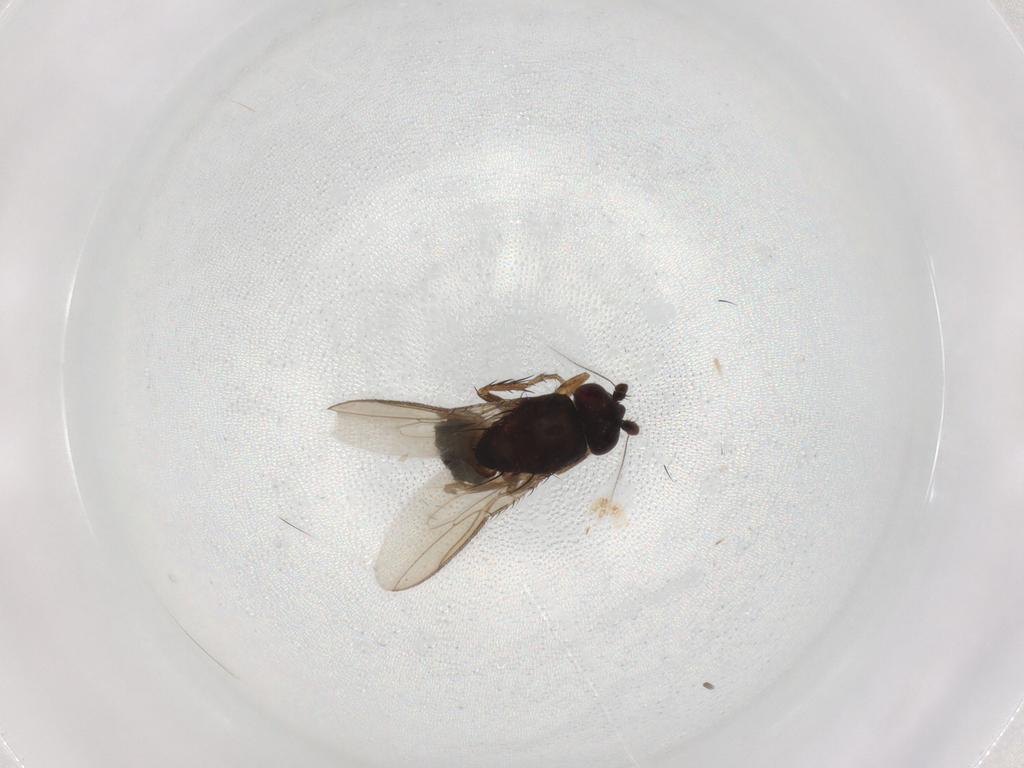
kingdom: Animalia
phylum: Arthropoda
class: Insecta
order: Diptera
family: Sphaeroceridae
